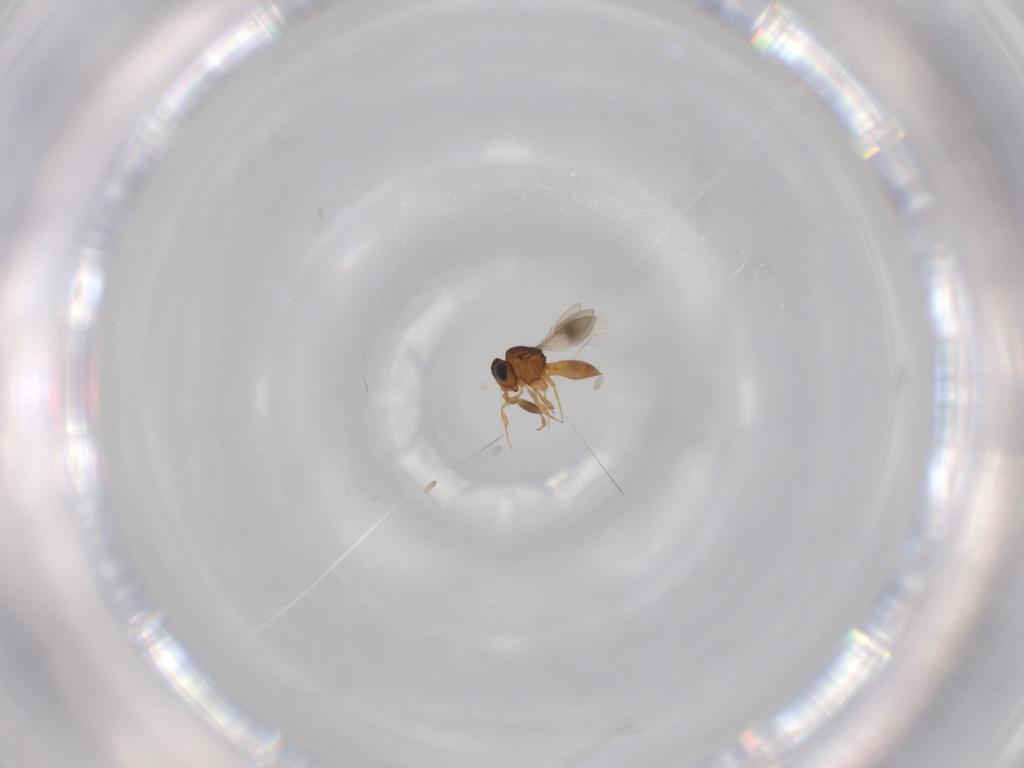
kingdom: Animalia
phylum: Arthropoda
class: Insecta
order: Hymenoptera
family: Scelionidae
